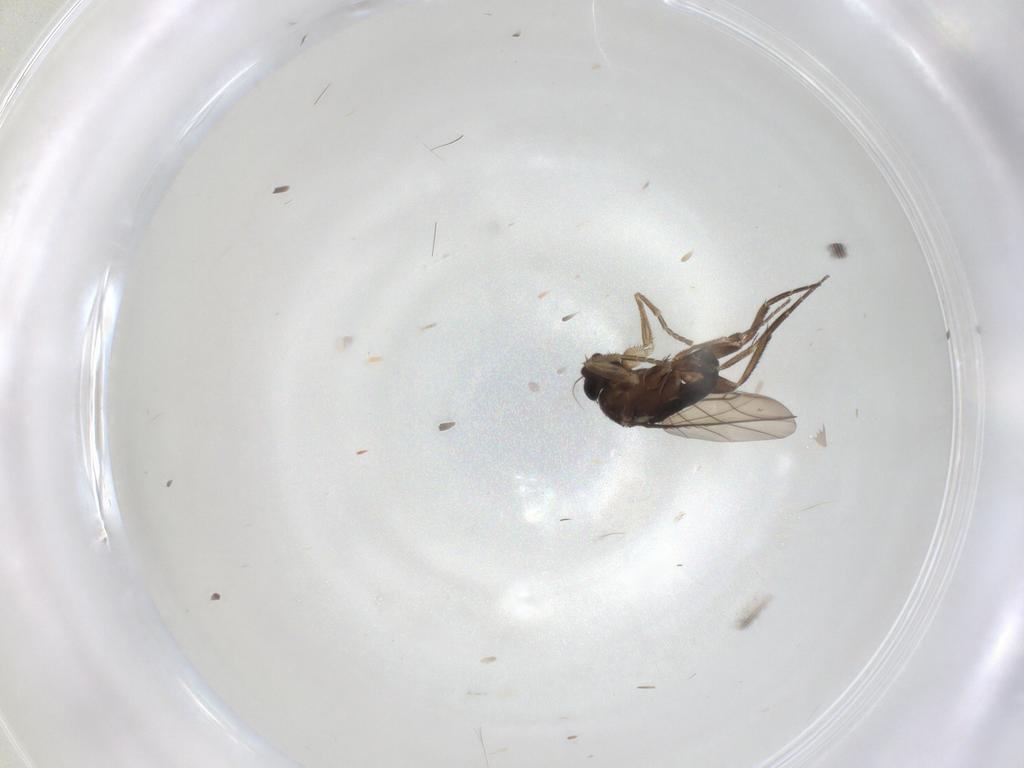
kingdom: Animalia
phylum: Arthropoda
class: Insecta
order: Diptera
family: Phoridae
